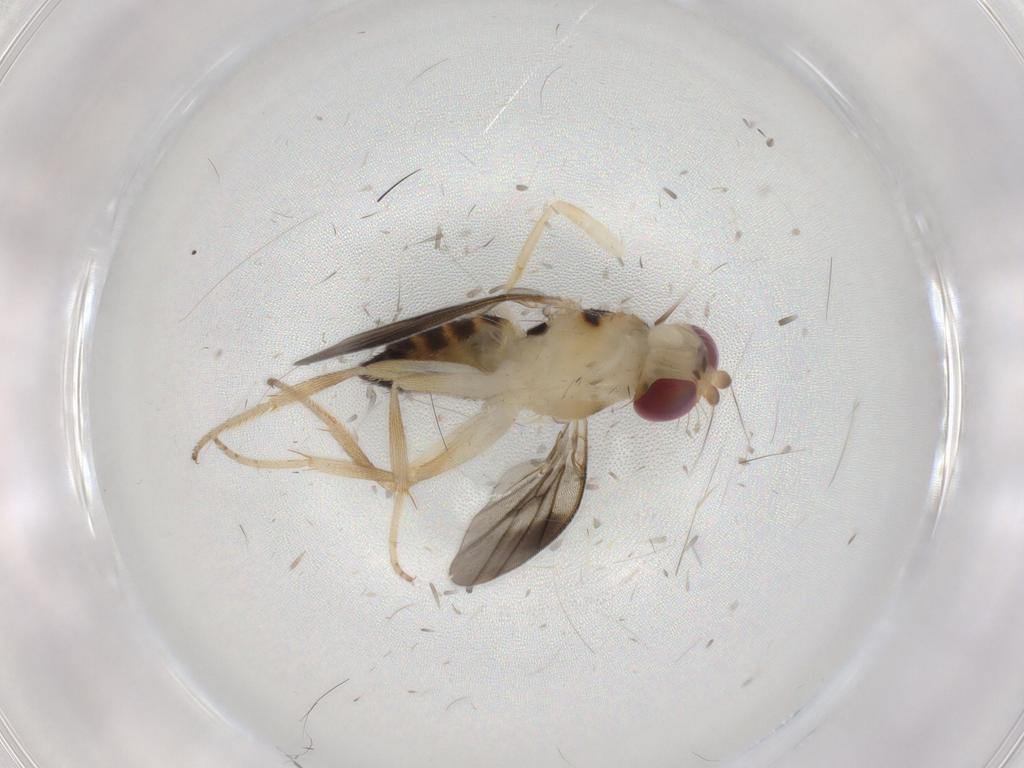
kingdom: Animalia
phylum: Arthropoda
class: Insecta
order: Diptera
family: Clusiidae
